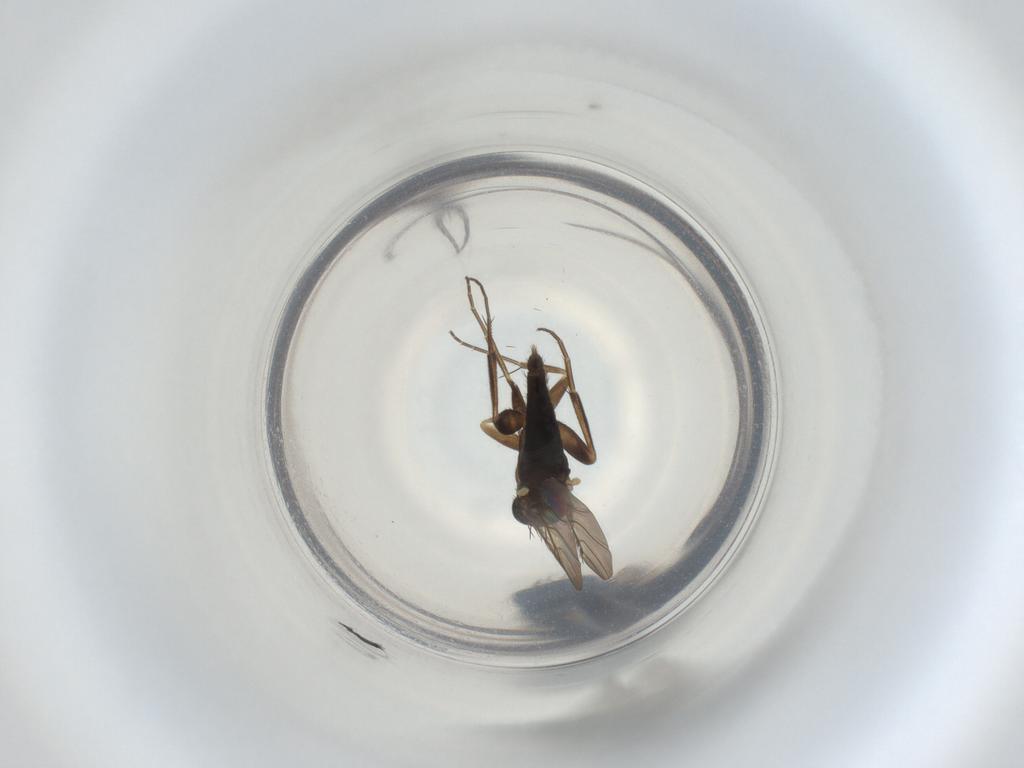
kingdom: Animalia
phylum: Arthropoda
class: Insecta
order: Diptera
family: Phoridae
